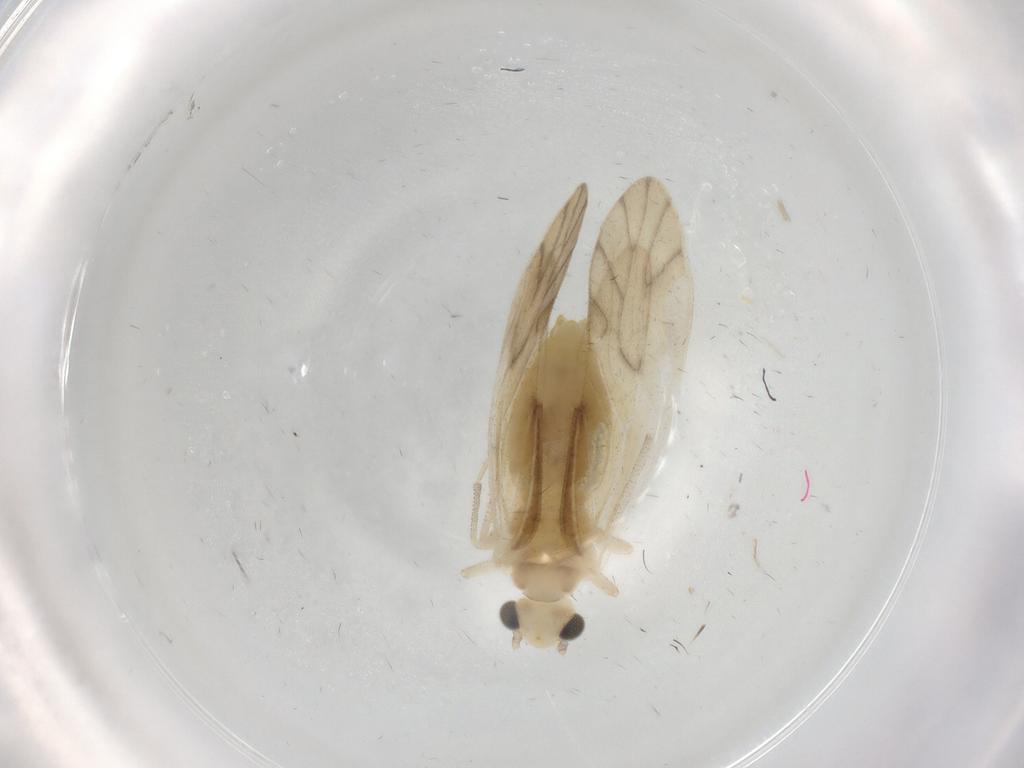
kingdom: Animalia
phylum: Arthropoda
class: Insecta
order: Psocodea
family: Caeciliusidae
